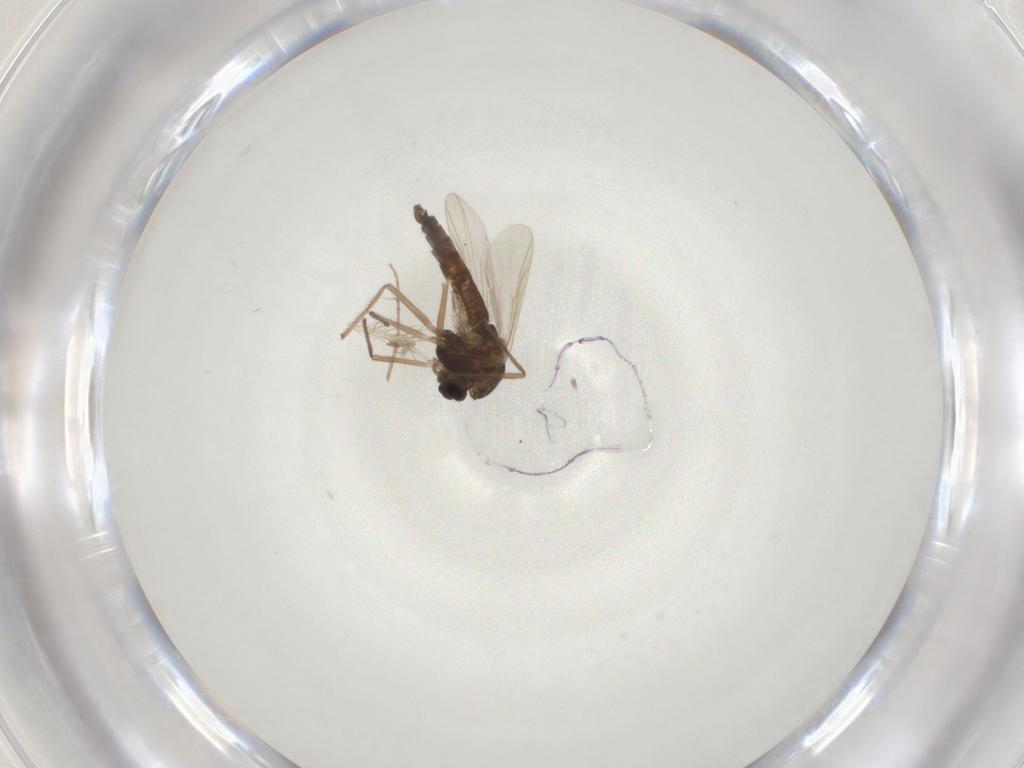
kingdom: Animalia
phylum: Arthropoda
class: Insecta
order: Diptera
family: Chironomidae
